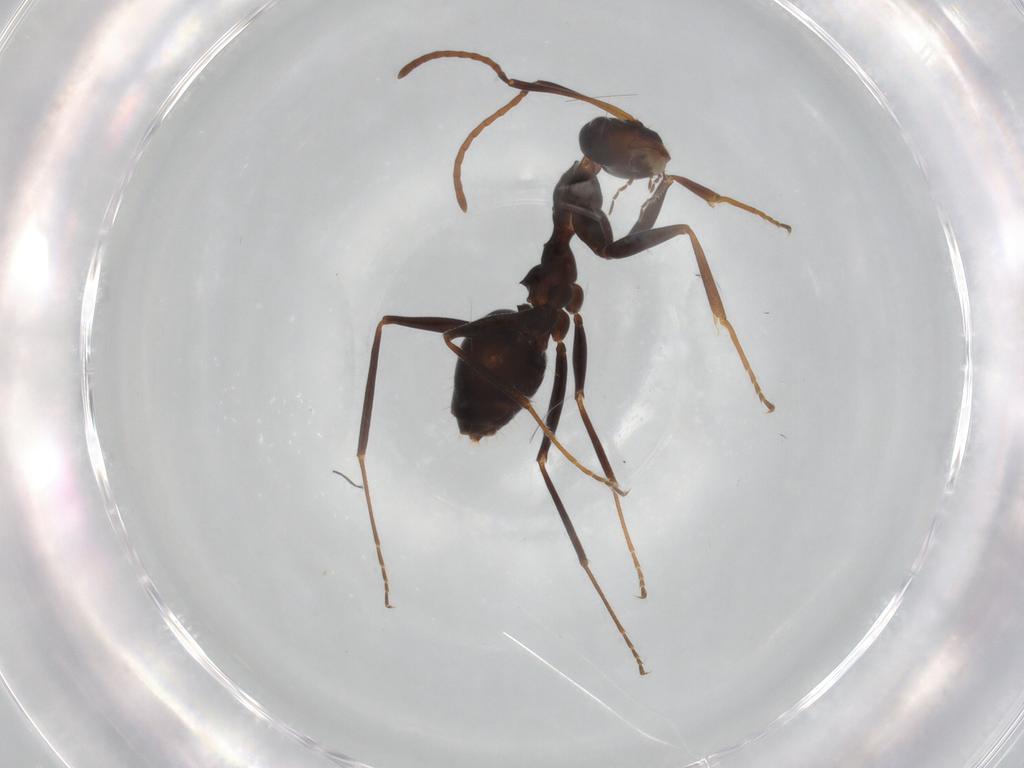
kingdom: Animalia
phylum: Arthropoda
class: Insecta
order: Hymenoptera
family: Formicidae
